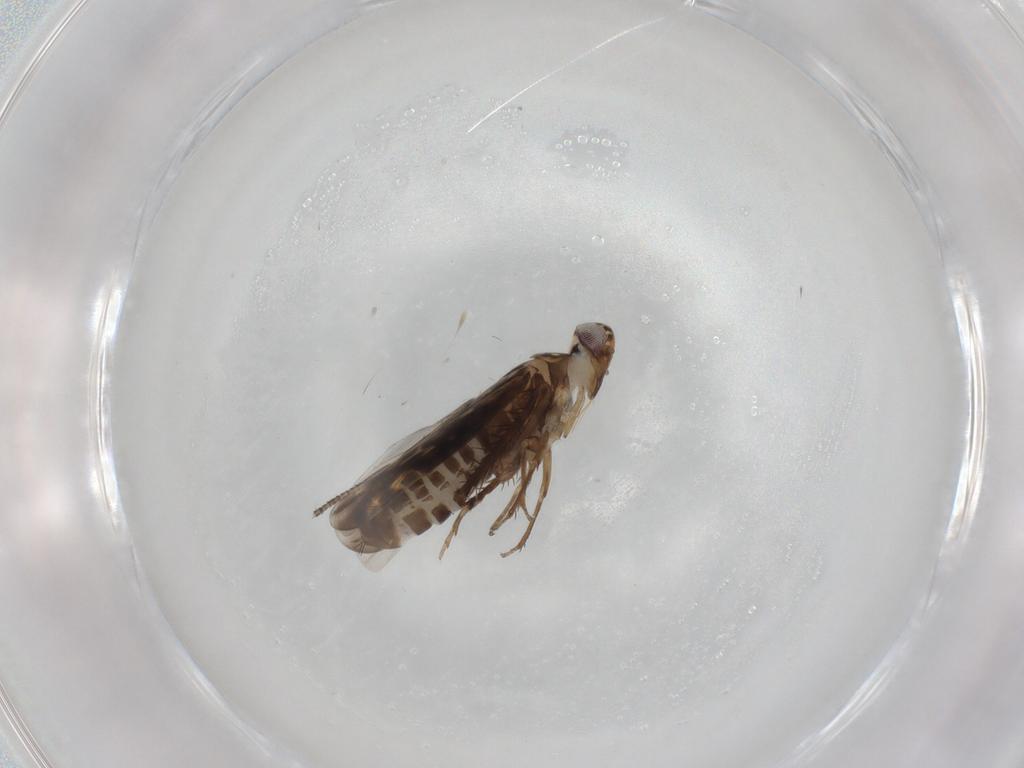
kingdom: Animalia
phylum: Arthropoda
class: Insecta
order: Hemiptera
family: Cicadellidae
